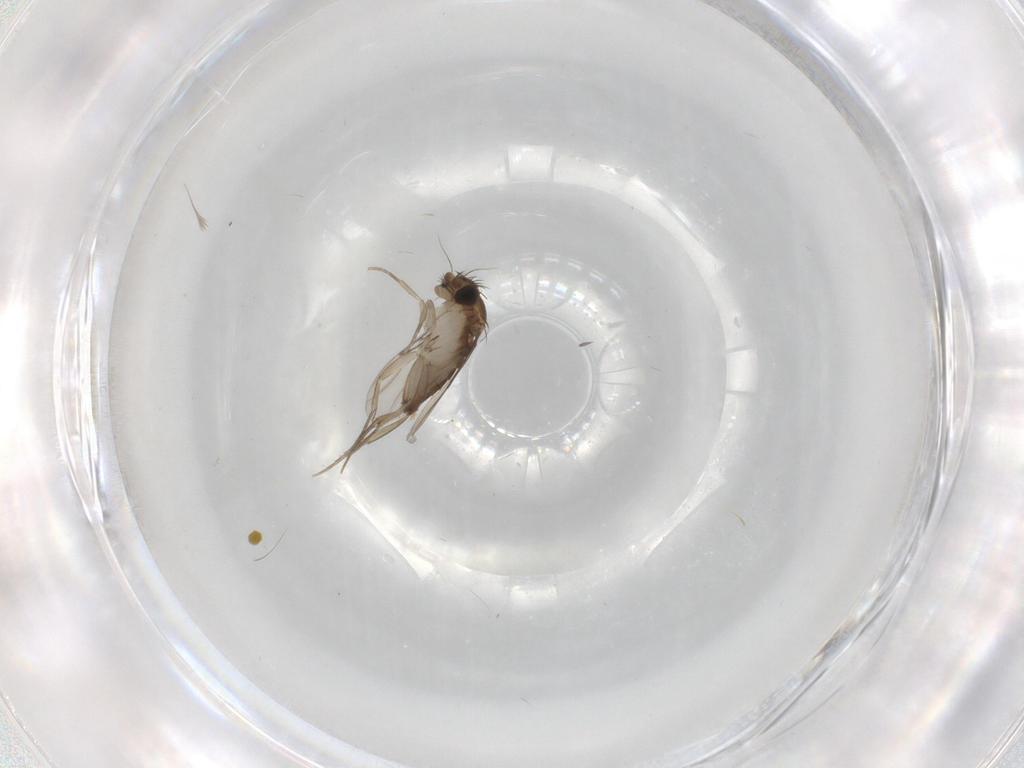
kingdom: Animalia
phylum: Arthropoda
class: Insecta
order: Diptera
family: Phoridae
